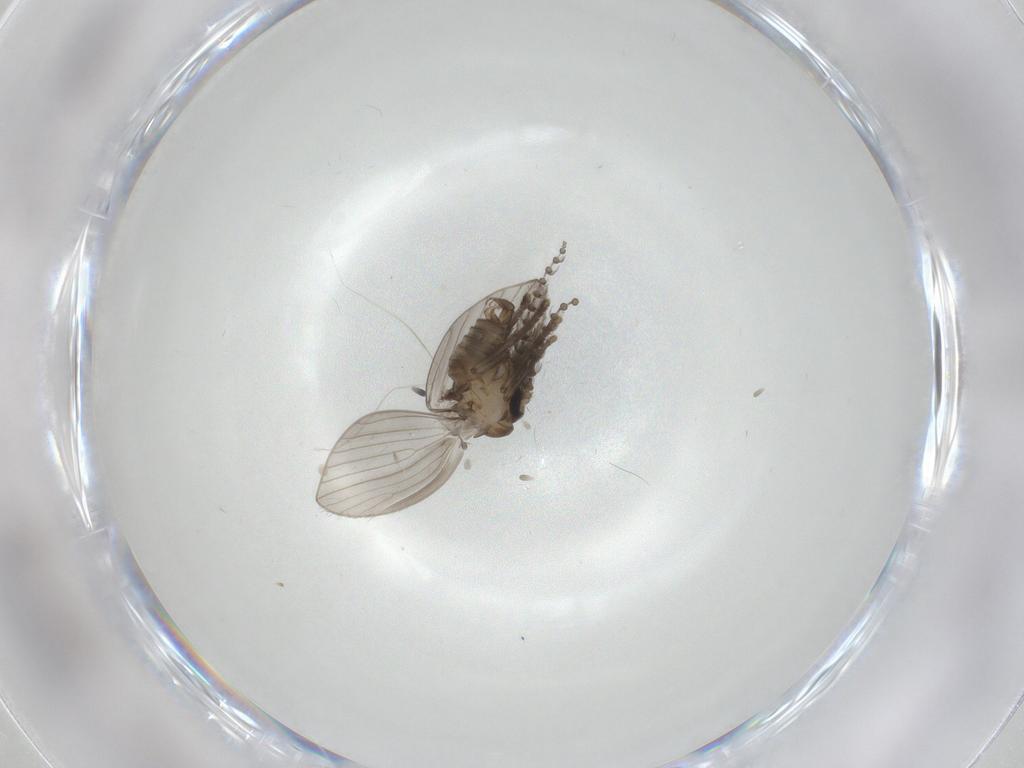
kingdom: Animalia
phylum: Arthropoda
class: Insecta
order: Diptera
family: Psychodidae
